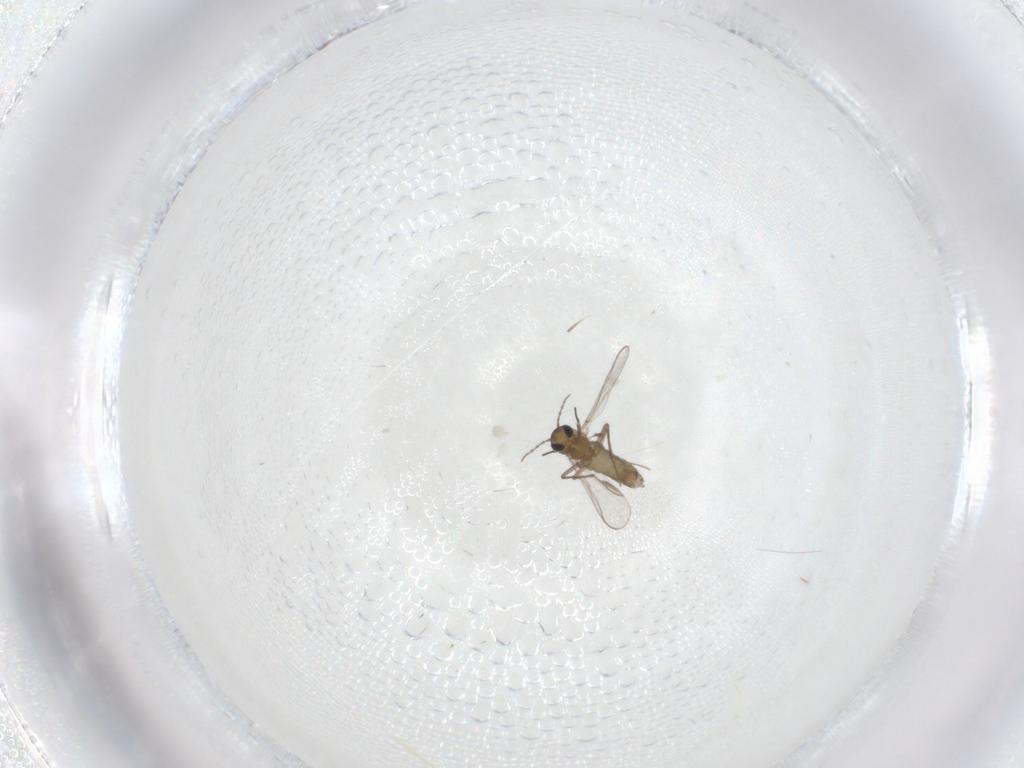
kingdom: Animalia
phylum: Arthropoda
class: Insecta
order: Diptera
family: Chironomidae
